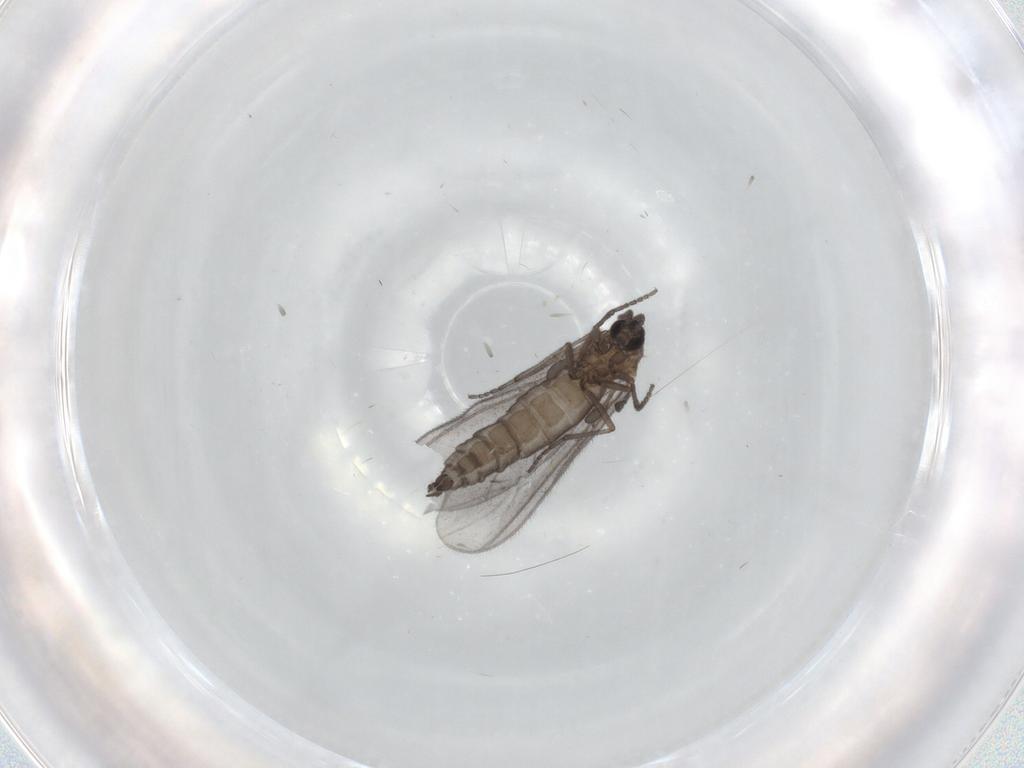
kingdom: Animalia
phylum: Arthropoda
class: Insecta
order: Diptera
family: Sciaridae
